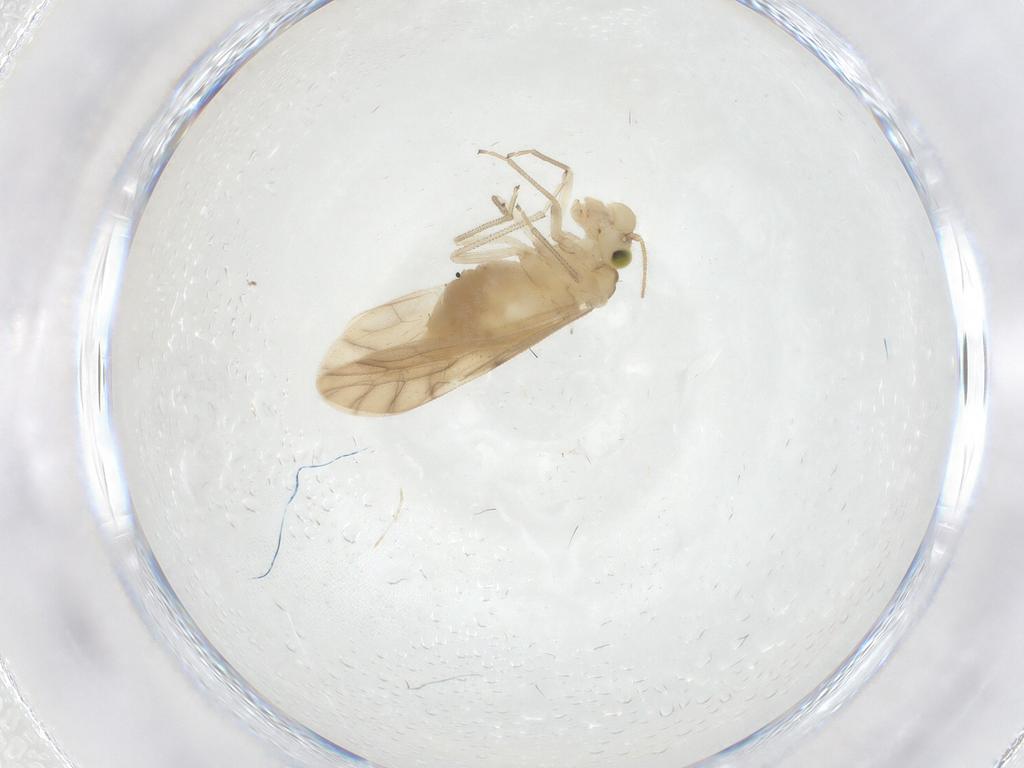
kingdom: Animalia
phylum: Arthropoda
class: Insecta
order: Psocodea
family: Caeciliusidae
